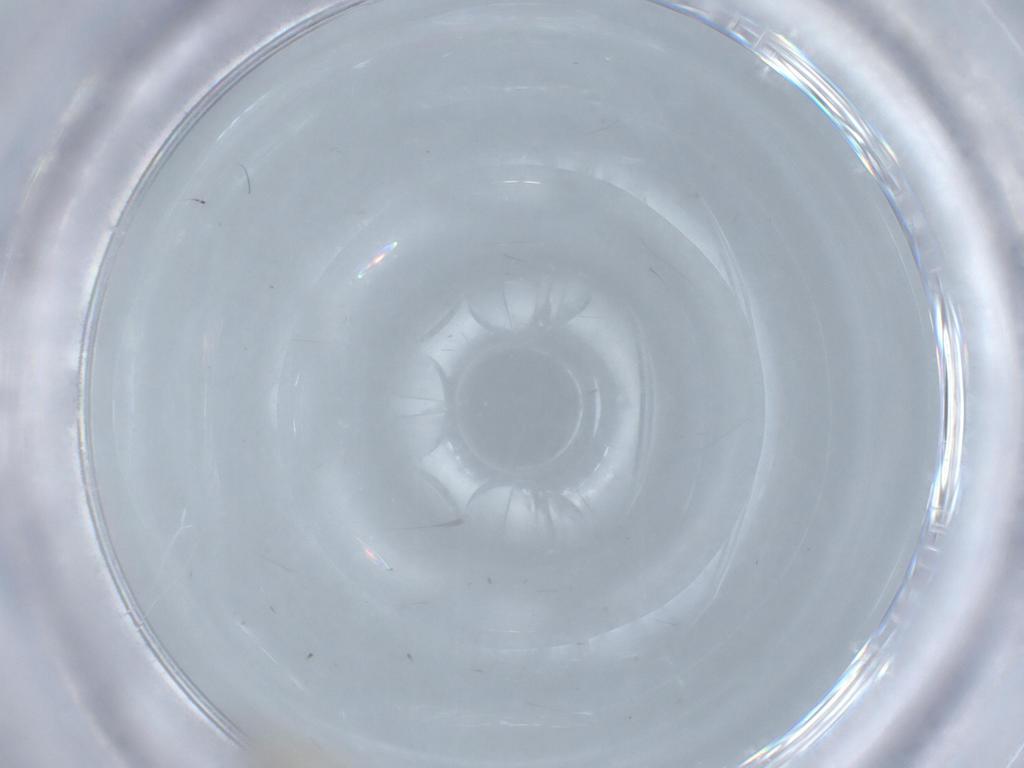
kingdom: Animalia
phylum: Arthropoda
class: Insecta
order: Diptera
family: Cecidomyiidae
